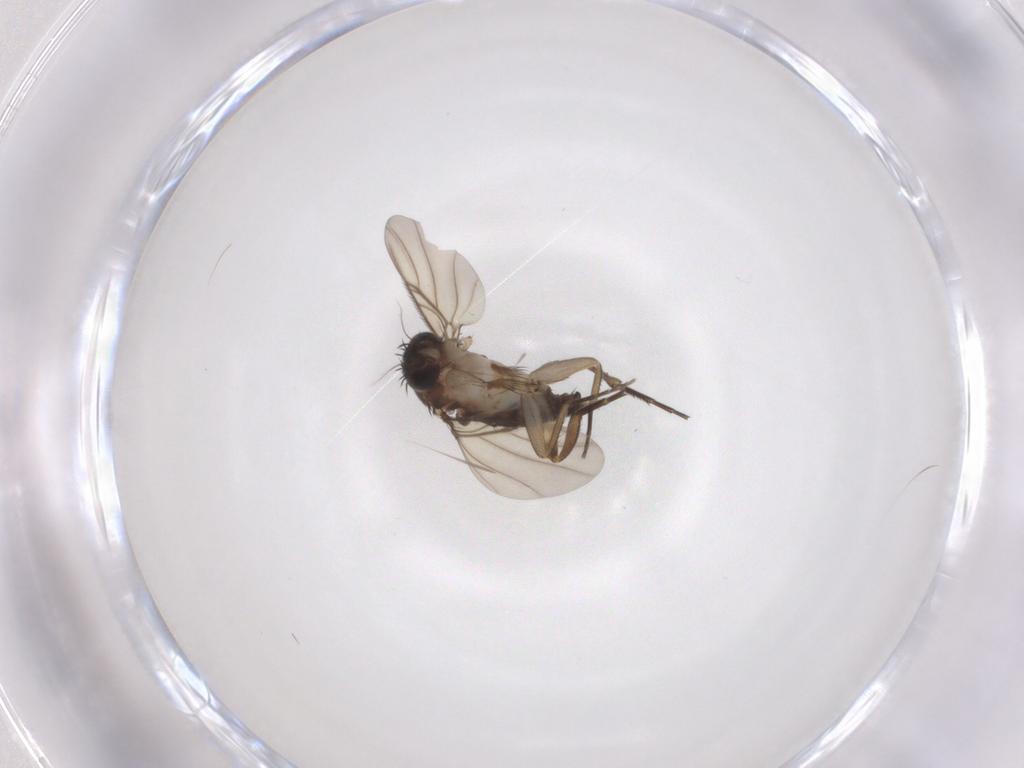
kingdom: Animalia
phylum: Arthropoda
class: Insecta
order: Diptera
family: Phoridae
